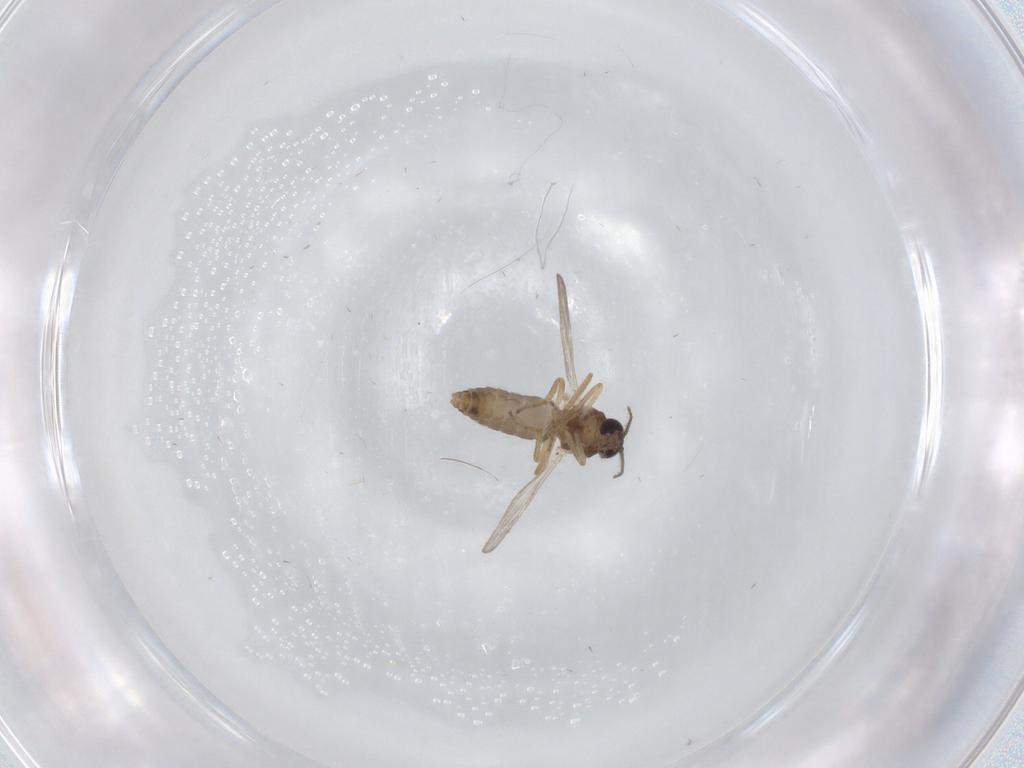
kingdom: Animalia
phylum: Arthropoda
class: Insecta
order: Diptera
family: Ceratopogonidae
